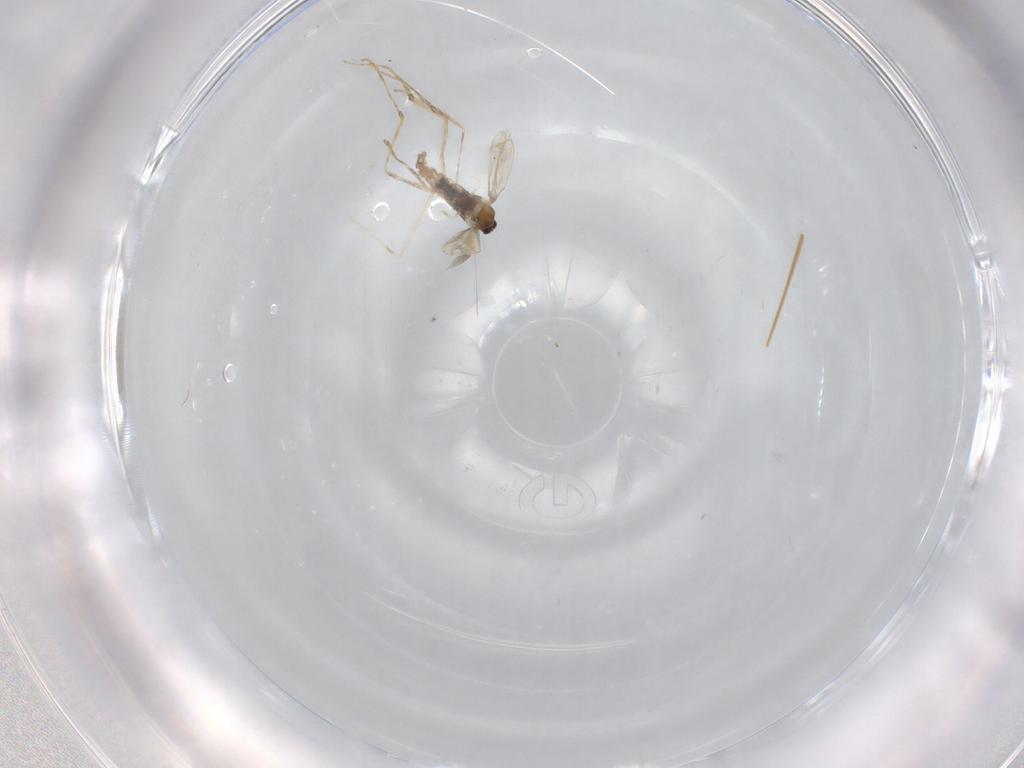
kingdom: Animalia
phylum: Arthropoda
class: Insecta
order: Diptera
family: Cecidomyiidae
